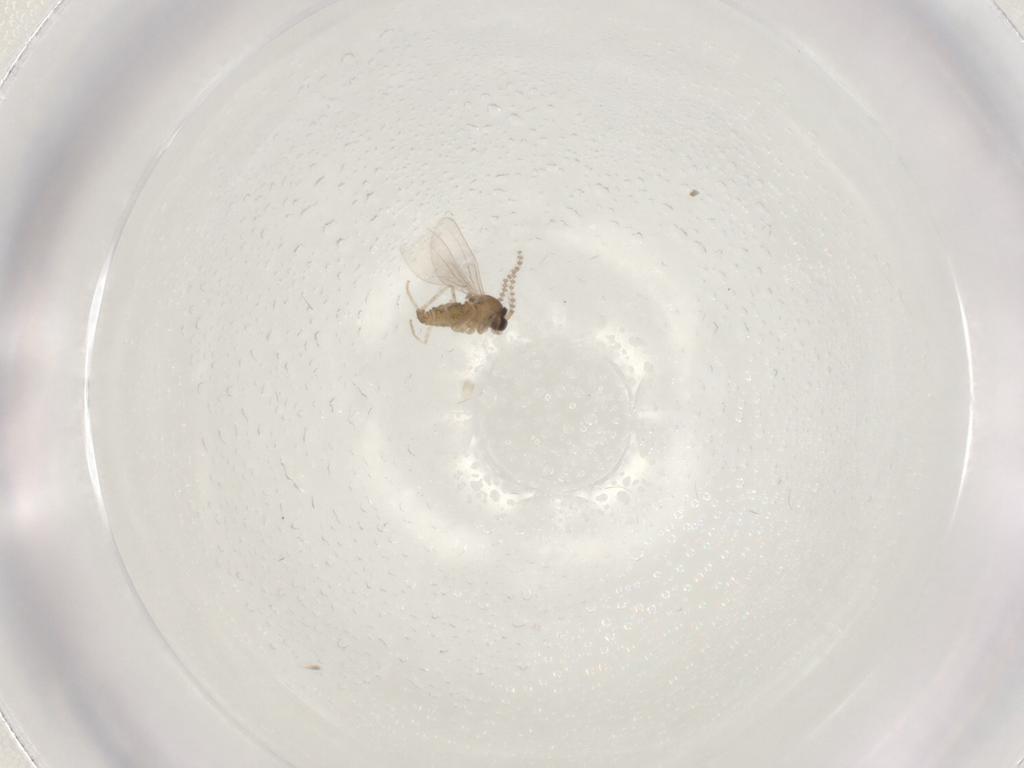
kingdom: Animalia
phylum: Arthropoda
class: Insecta
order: Diptera
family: Cecidomyiidae
